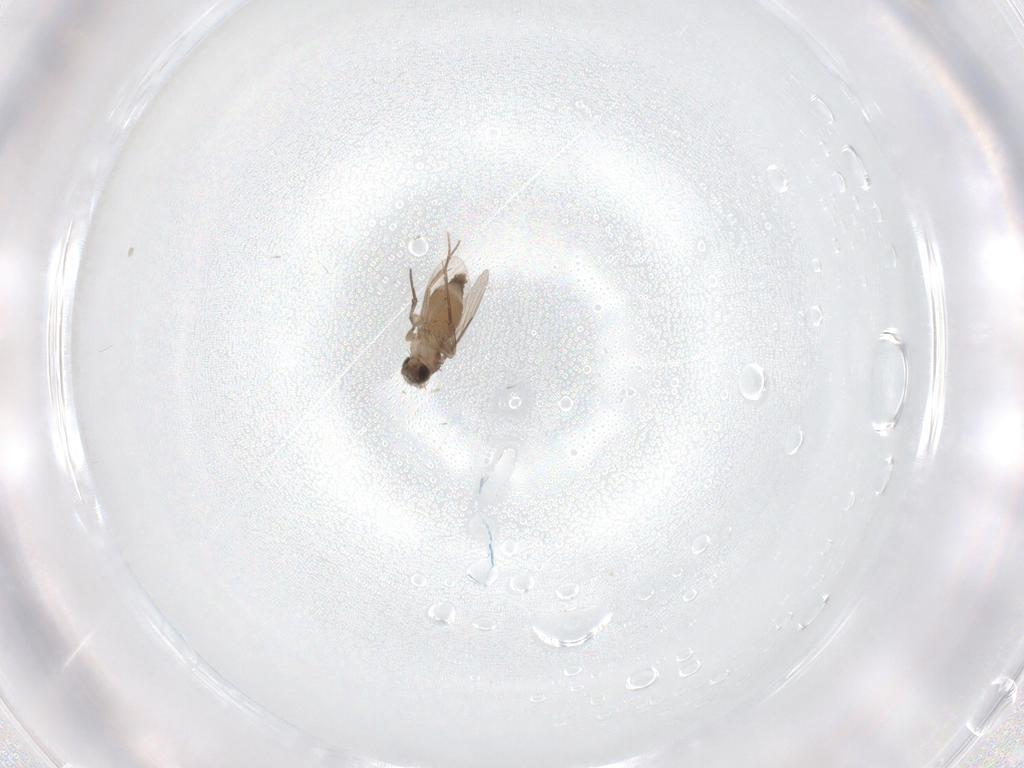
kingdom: Animalia
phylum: Arthropoda
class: Insecta
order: Diptera
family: Phoridae
